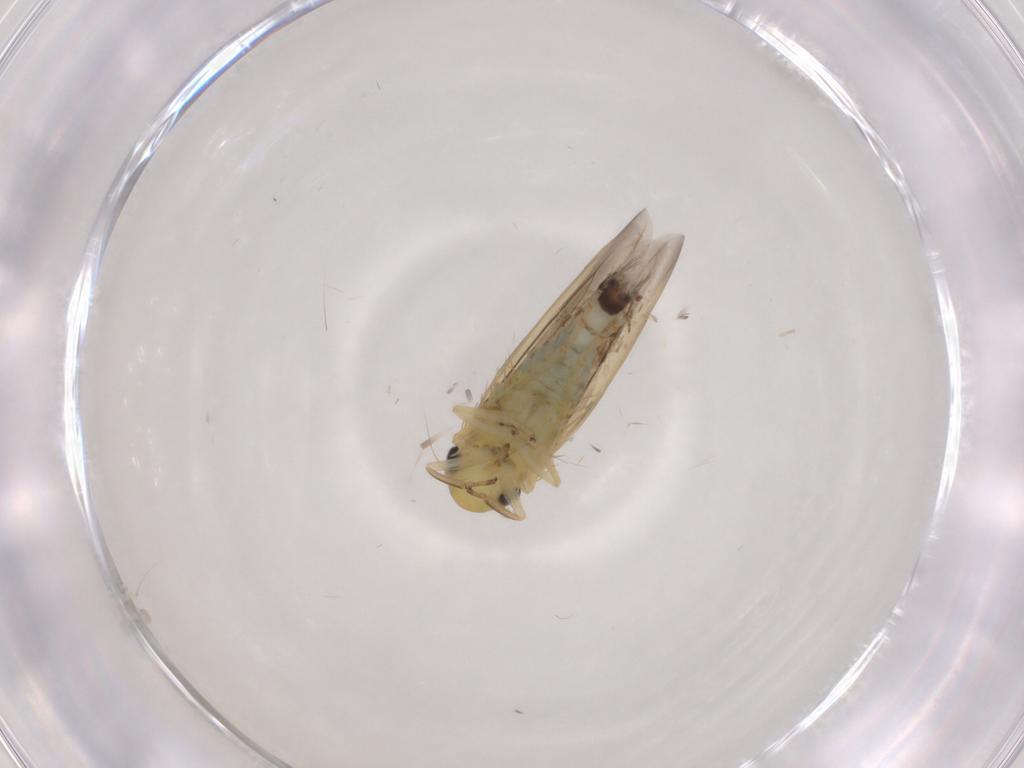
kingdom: Animalia
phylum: Arthropoda
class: Insecta
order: Hemiptera
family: Cicadellidae
